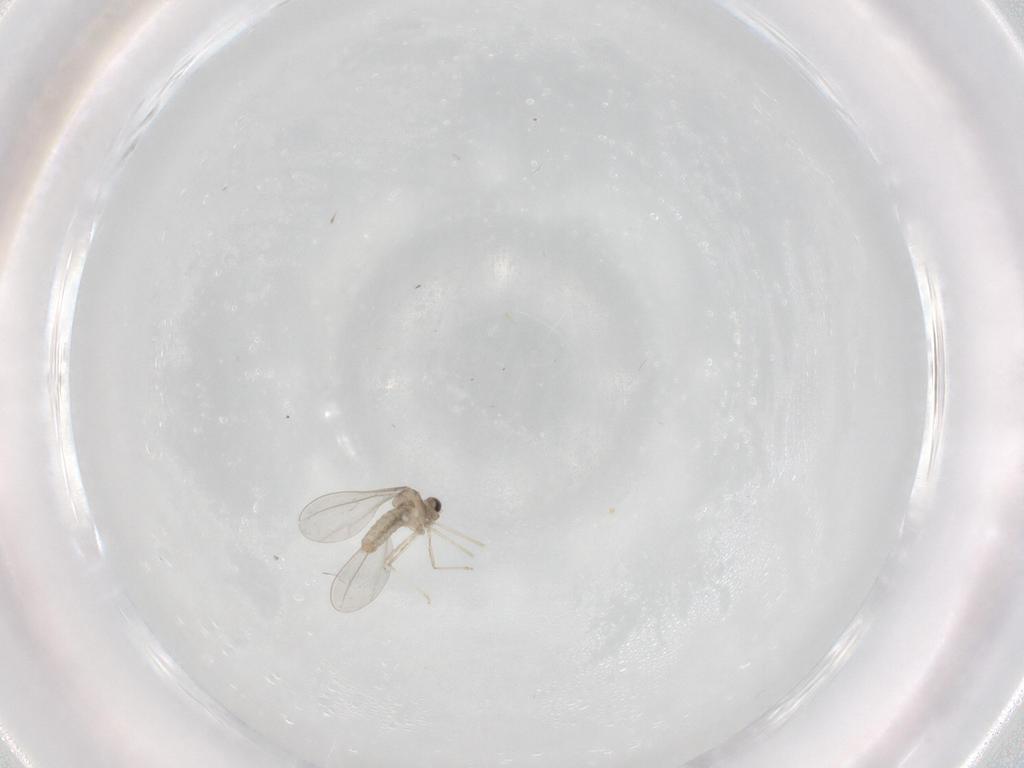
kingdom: Animalia
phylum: Arthropoda
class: Insecta
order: Diptera
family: Cecidomyiidae
